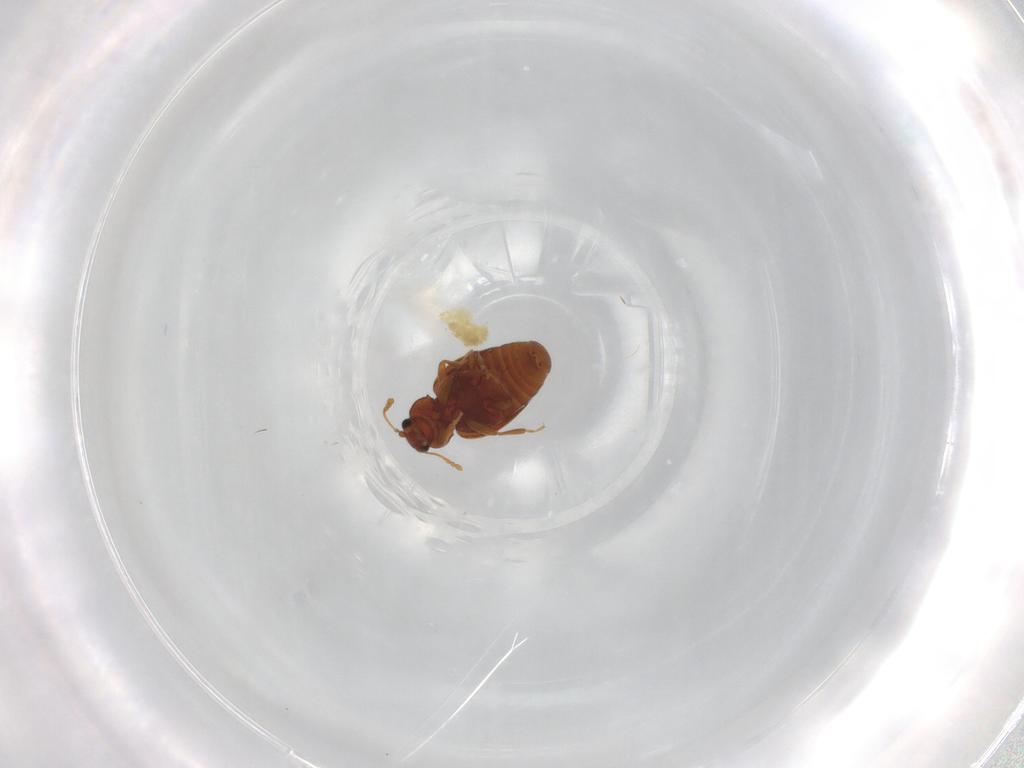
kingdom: Animalia
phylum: Arthropoda
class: Insecta
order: Coleoptera
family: Latridiidae
